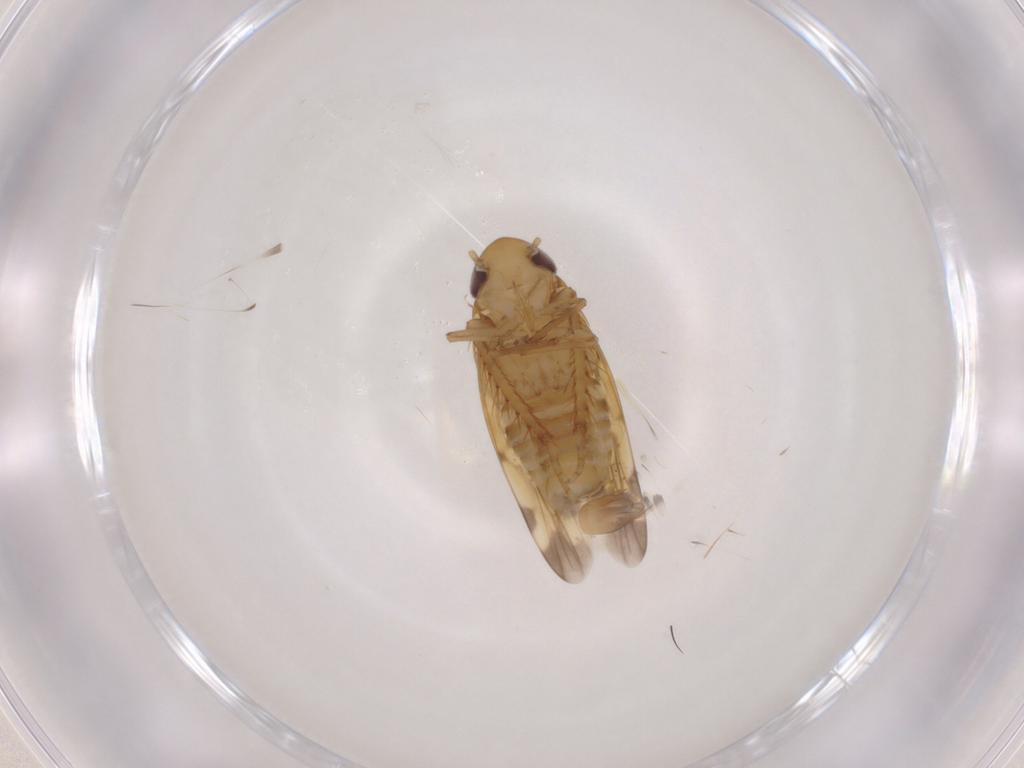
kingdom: Animalia
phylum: Arthropoda
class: Insecta
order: Hemiptera
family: Cicadellidae
